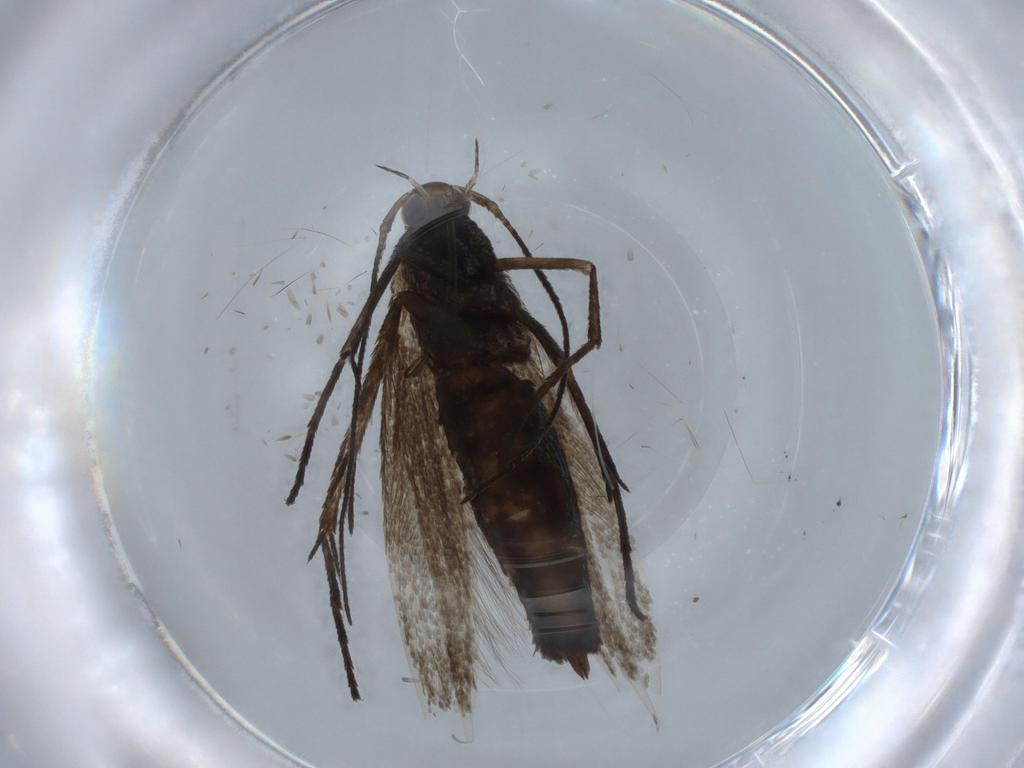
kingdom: Animalia
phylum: Arthropoda
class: Insecta
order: Lepidoptera
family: Coleophoridae
